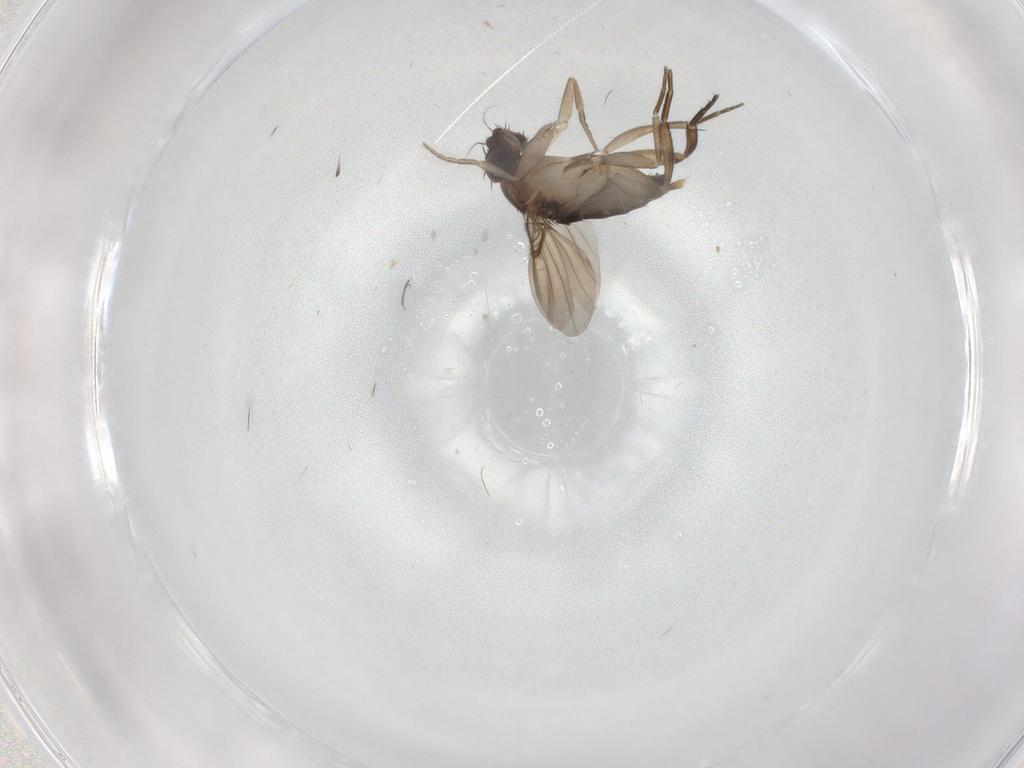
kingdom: Animalia
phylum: Arthropoda
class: Insecta
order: Diptera
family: Phoridae
